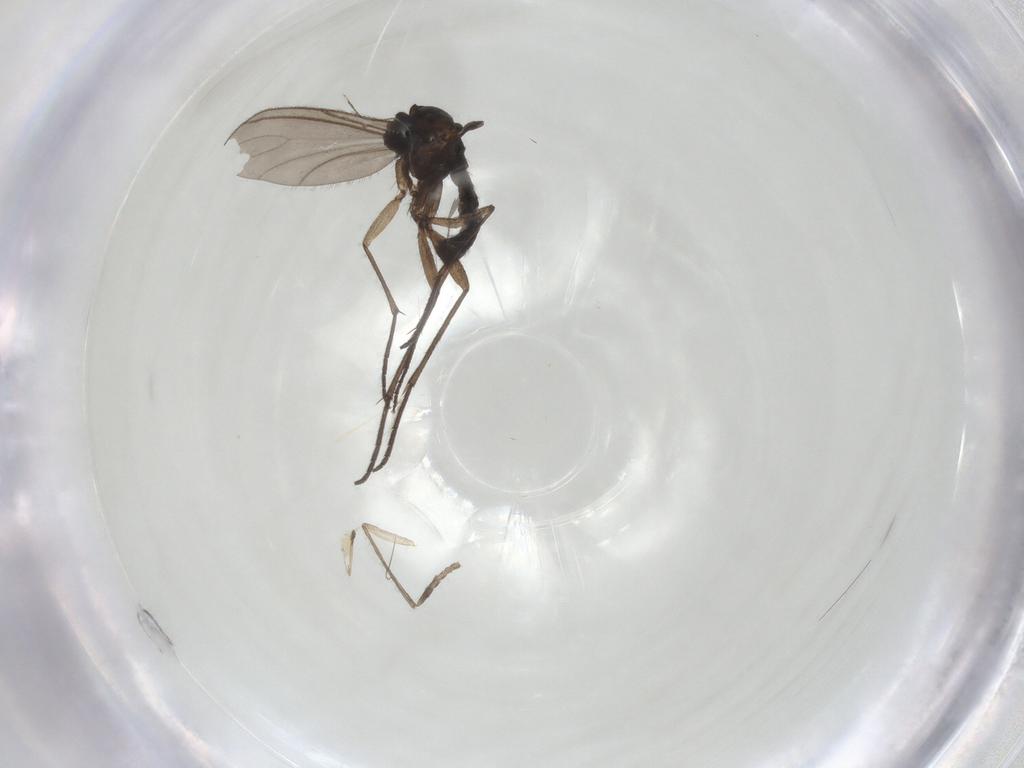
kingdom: Animalia
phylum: Arthropoda
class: Insecta
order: Diptera
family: Sciaridae
